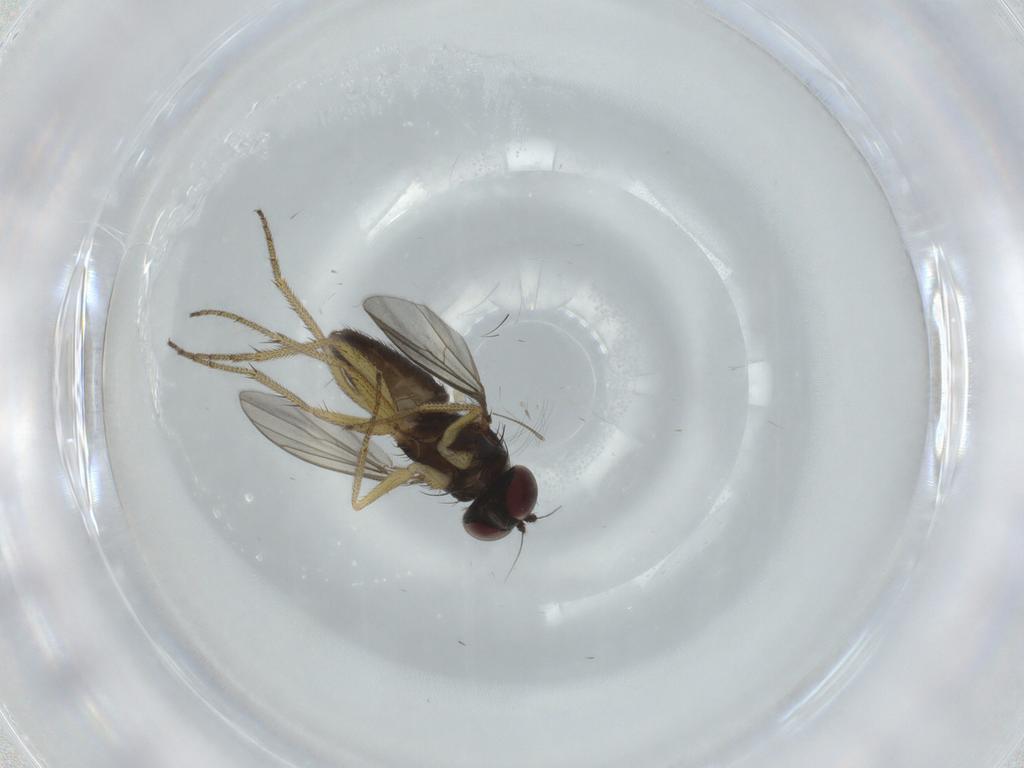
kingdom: Animalia
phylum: Arthropoda
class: Insecta
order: Diptera
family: Dolichopodidae
